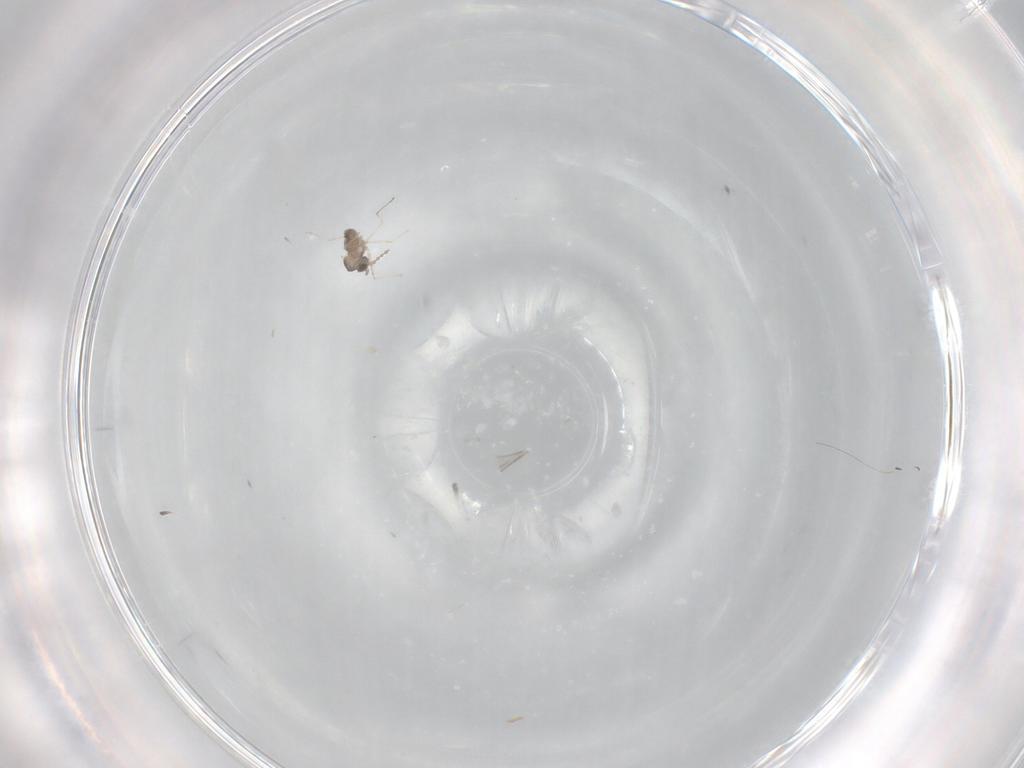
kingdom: Animalia
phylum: Arthropoda
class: Insecta
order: Diptera
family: Cecidomyiidae
